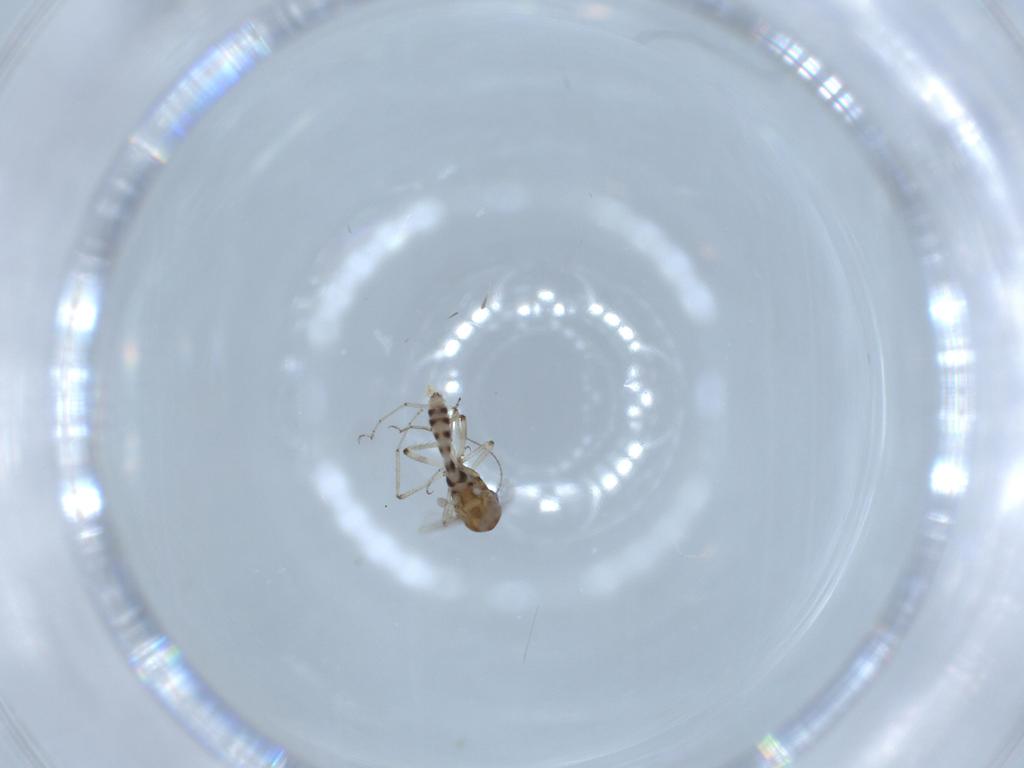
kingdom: Animalia
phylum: Arthropoda
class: Insecta
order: Diptera
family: Ceratopogonidae
